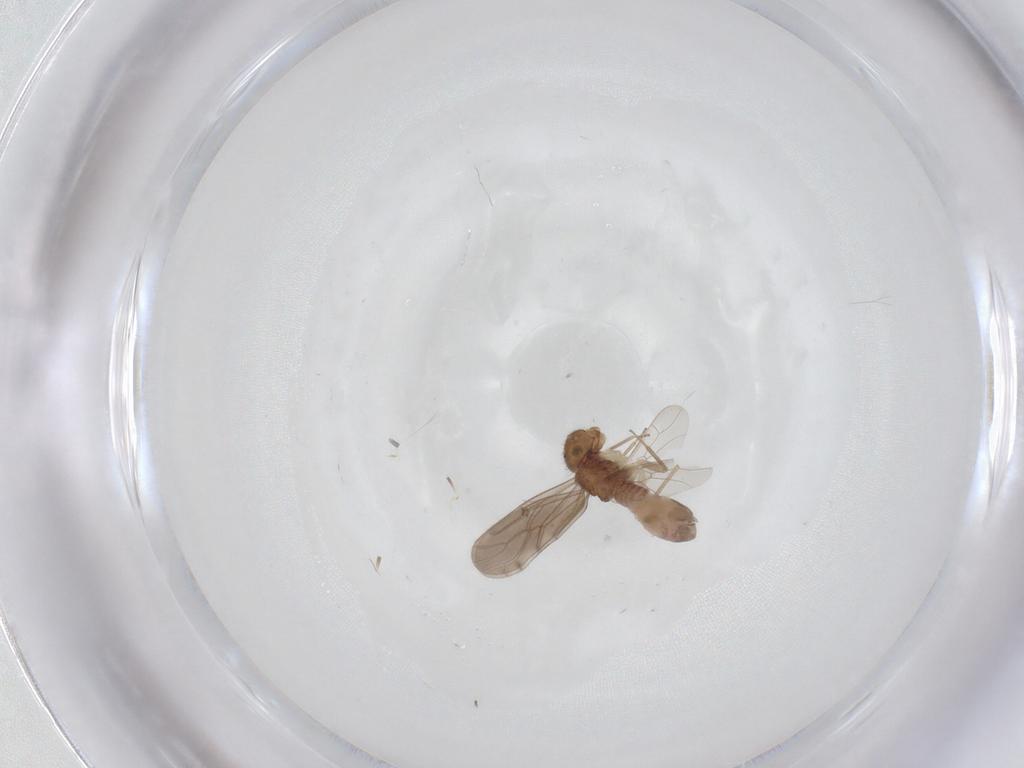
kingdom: Animalia
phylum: Arthropoda
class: Insecta
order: Psocodea
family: Ectopsocidae
